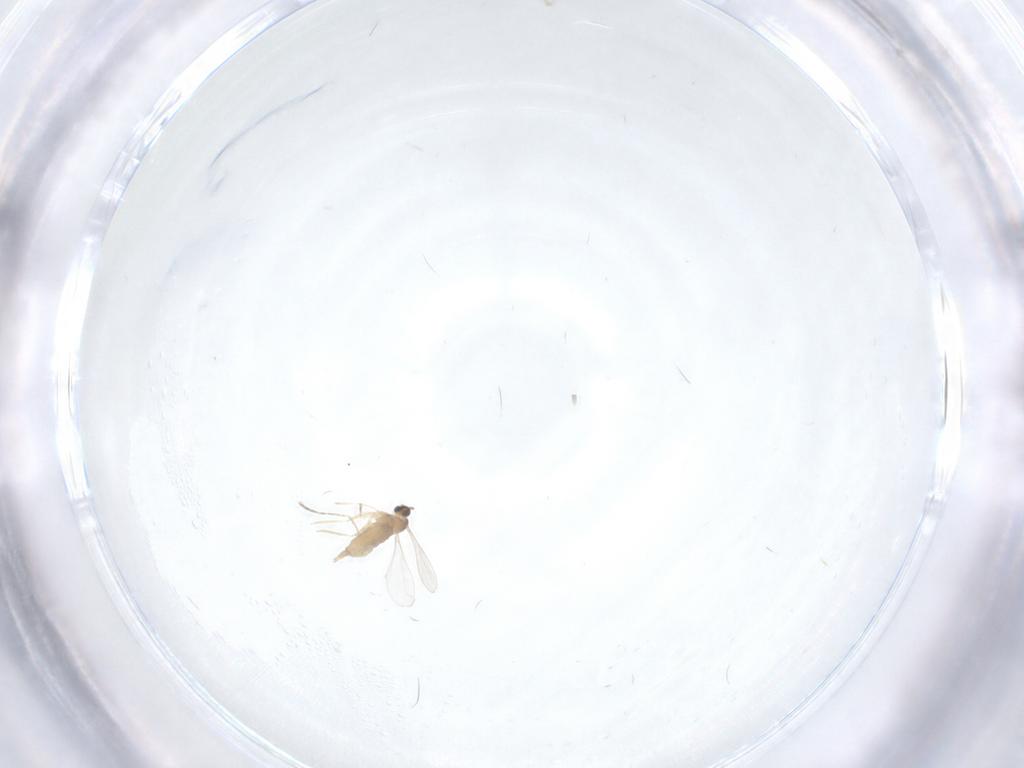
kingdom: Animalia
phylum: Arthropoda
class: Insecta
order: Diptera
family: Cecidomyiidae
